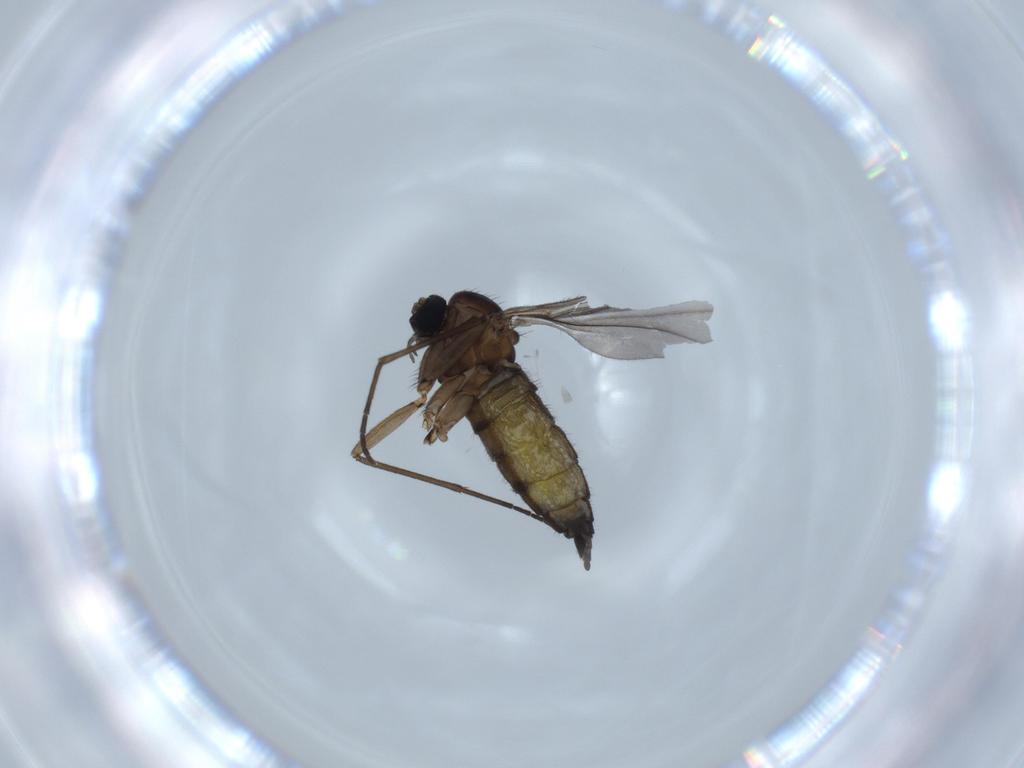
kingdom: Animalia
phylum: Arthropoda
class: Insecta
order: Diptera
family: Sciaridae
